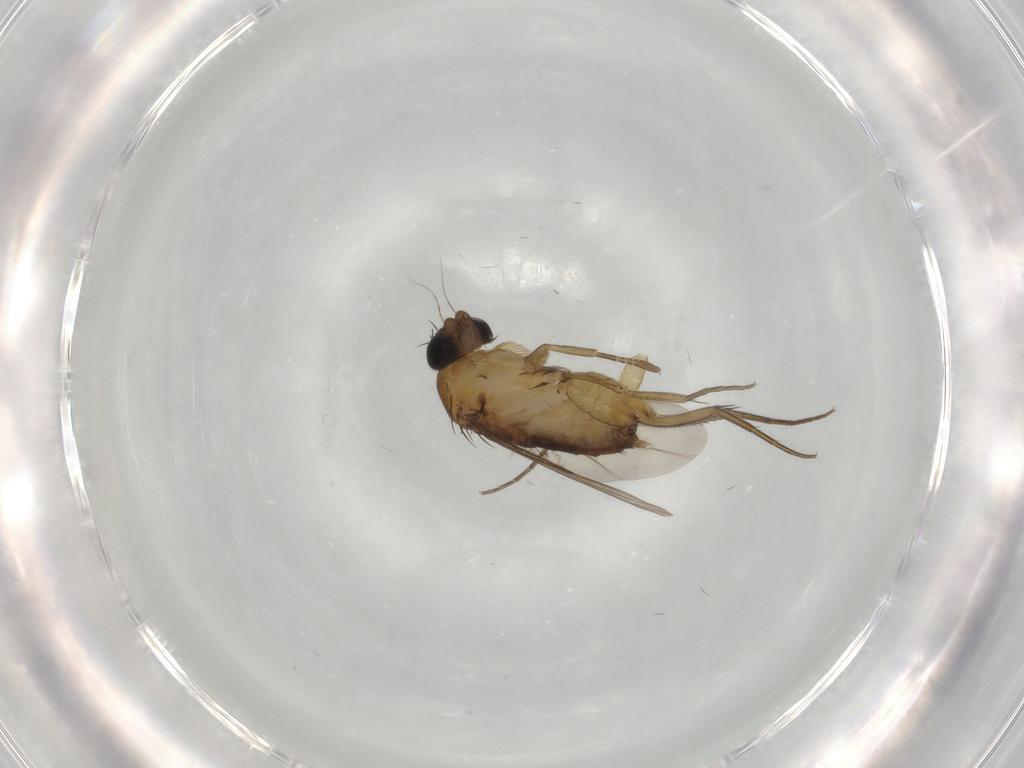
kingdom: Animalia
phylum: Arthropoda
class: Insecta
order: Diptera
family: Phoridae
